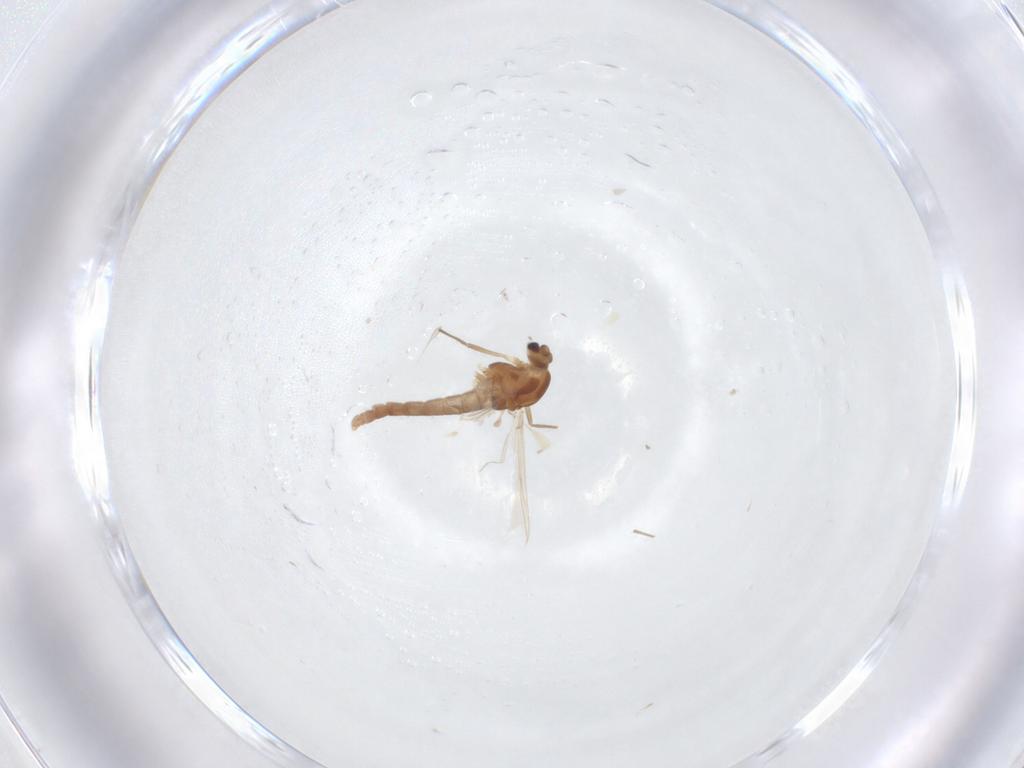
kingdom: Animalia
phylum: Arthropoda
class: Insecta
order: Diptera
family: Chironomidae
